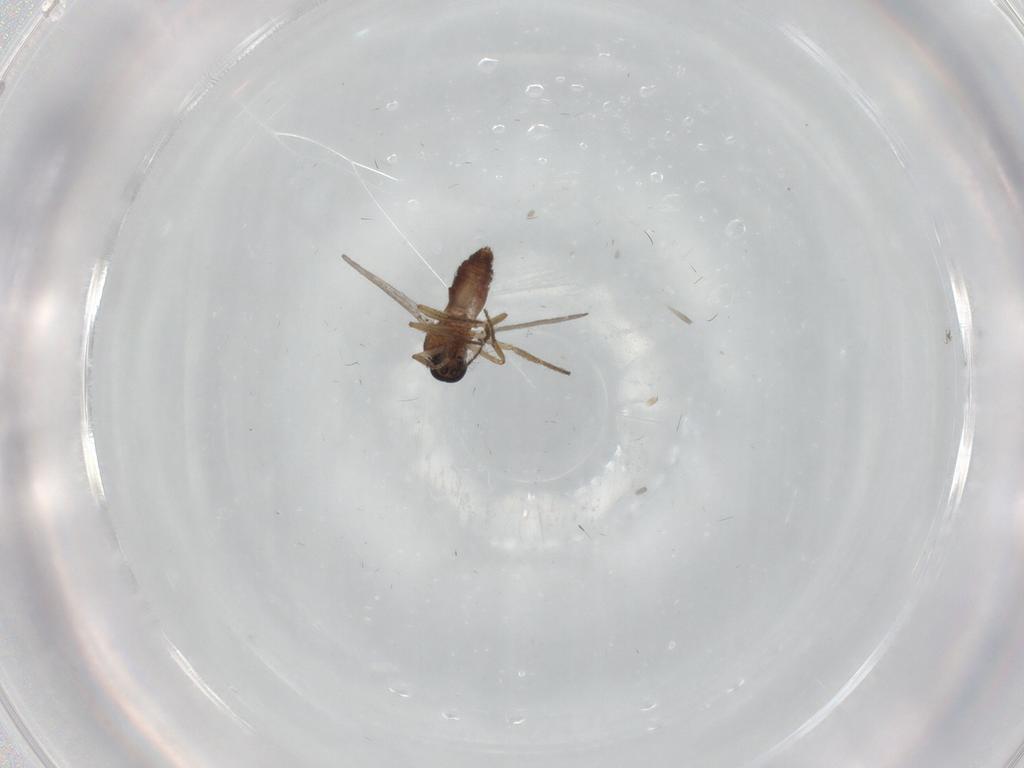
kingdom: Animalia
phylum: Arthropoda
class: Insecta
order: Diptera
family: Ceratopogonidae
